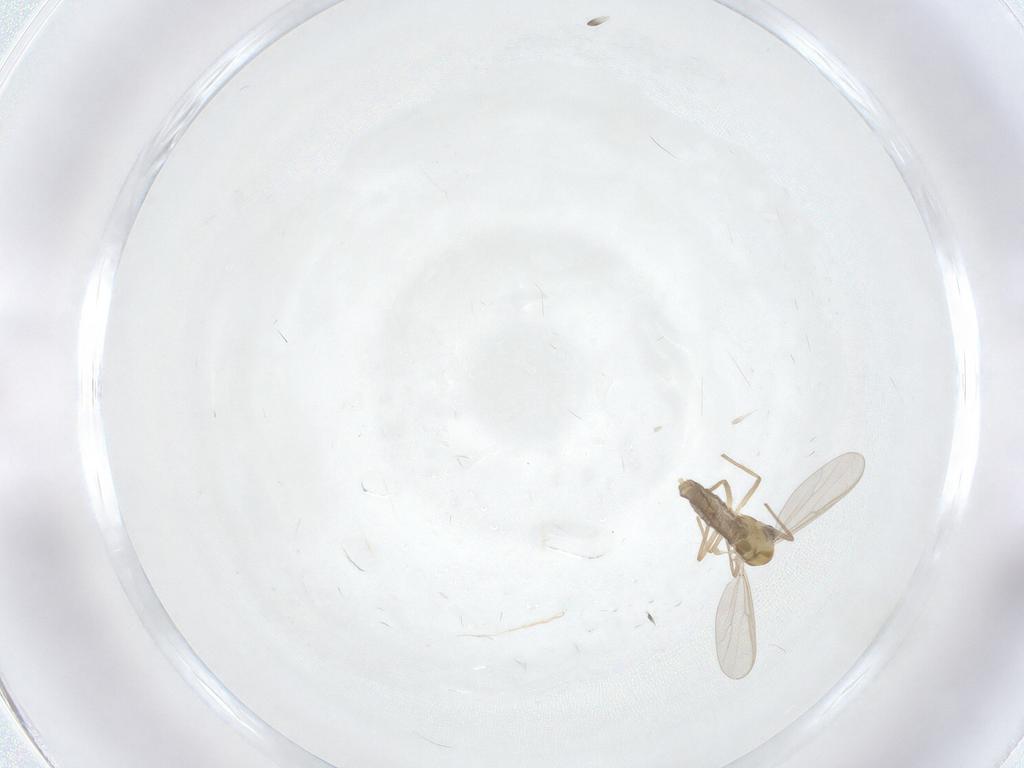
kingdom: Animalia
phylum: Arthropoda
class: Insecta
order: Diptera
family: Chironomidae
